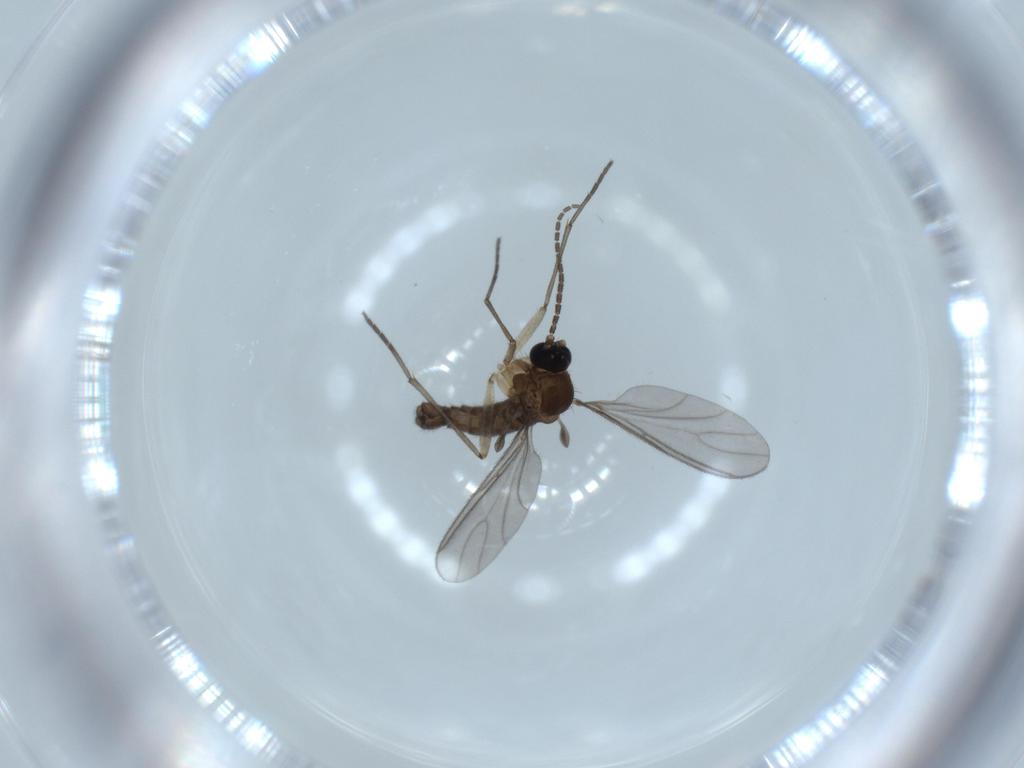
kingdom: Animalia
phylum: Arthropoda
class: Insecta
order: Diptera
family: Sciaridae
